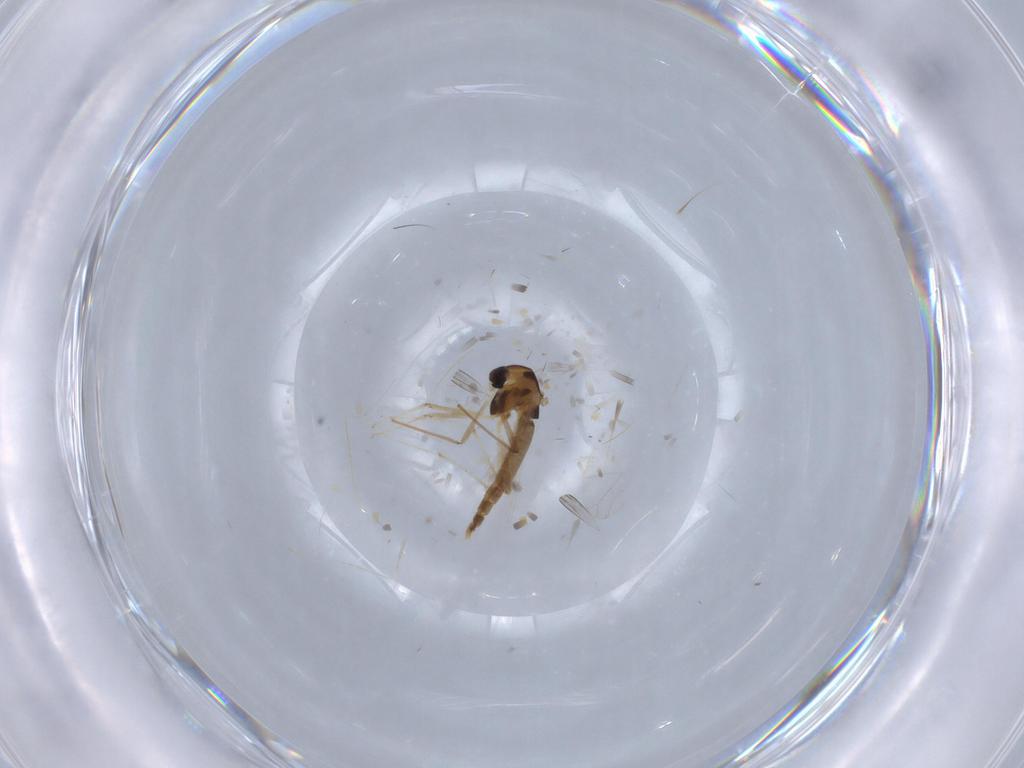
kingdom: Animalia
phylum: Arthropoda
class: Insecta
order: Diptera
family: Chironomidae
